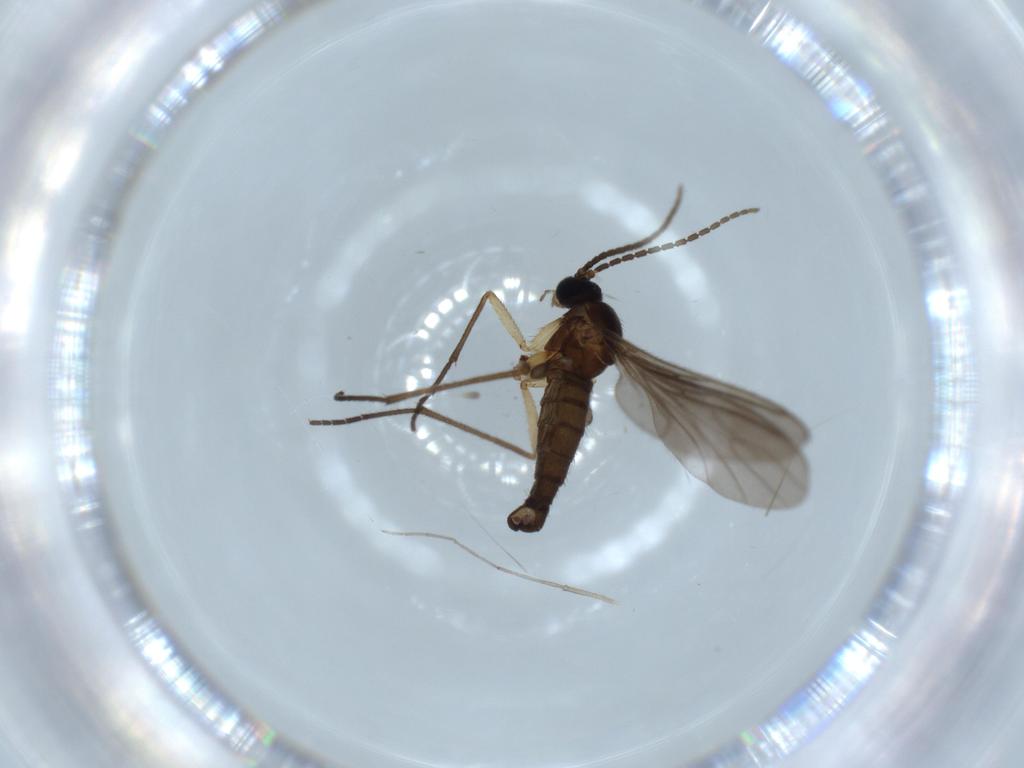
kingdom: Animalia
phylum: Arthropoda
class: Insecta
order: Diptera
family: Sciaridae
